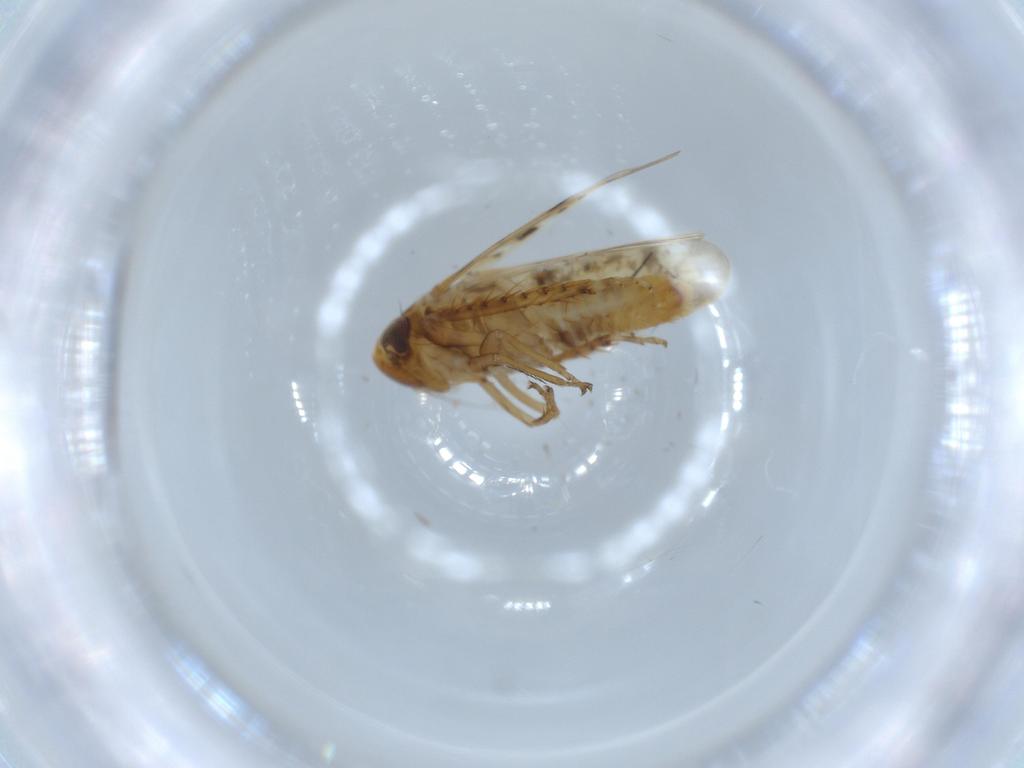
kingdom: Animalia
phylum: Arthropoda
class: Insecta
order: Hemiptera
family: Cicadellidae
